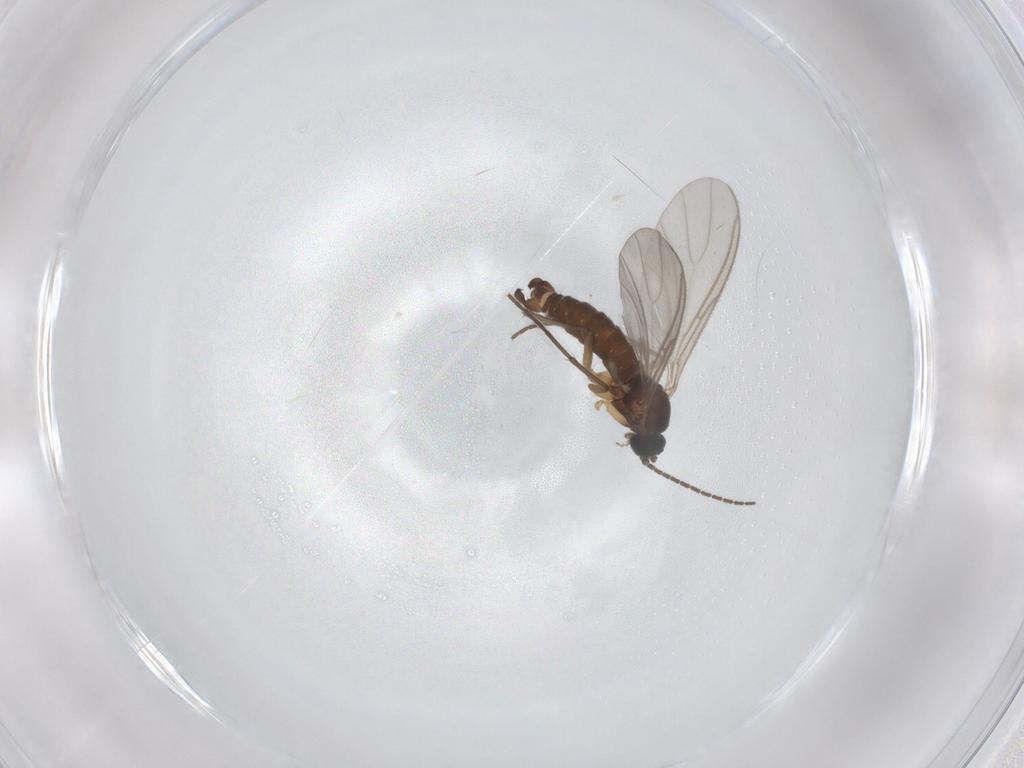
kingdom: Animalia
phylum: Arthropoda
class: Insecta
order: Diptera
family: Sciaridae
